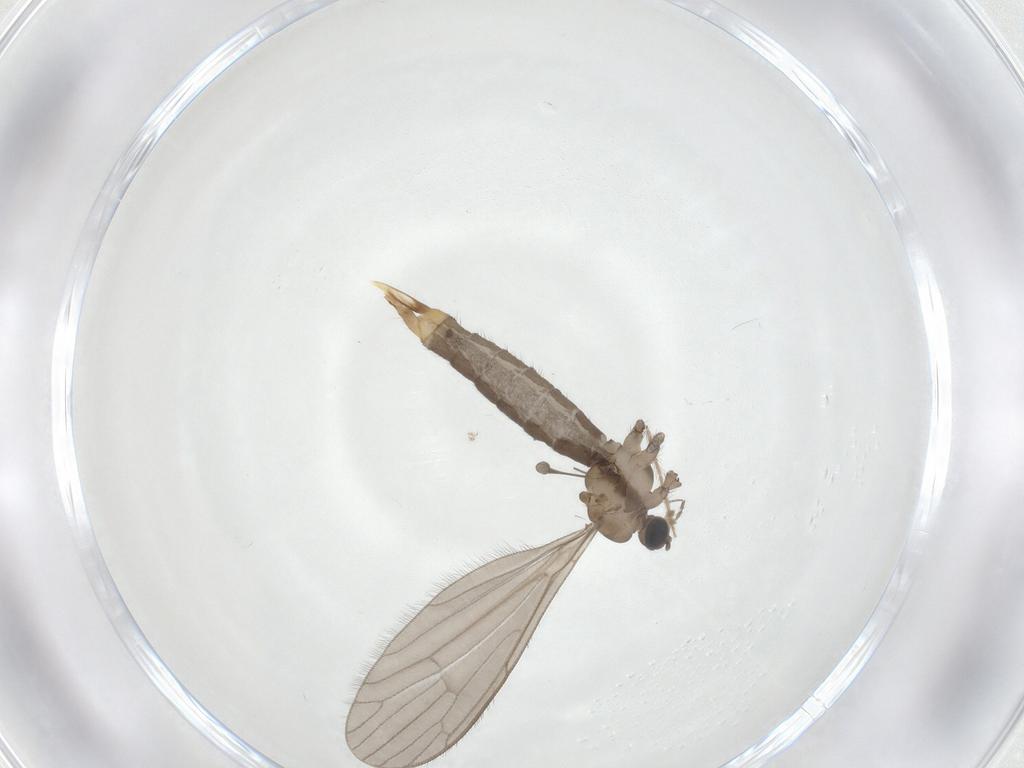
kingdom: Animalia
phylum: Arthropoda
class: Insecta
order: Diptera
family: Limoniidae
